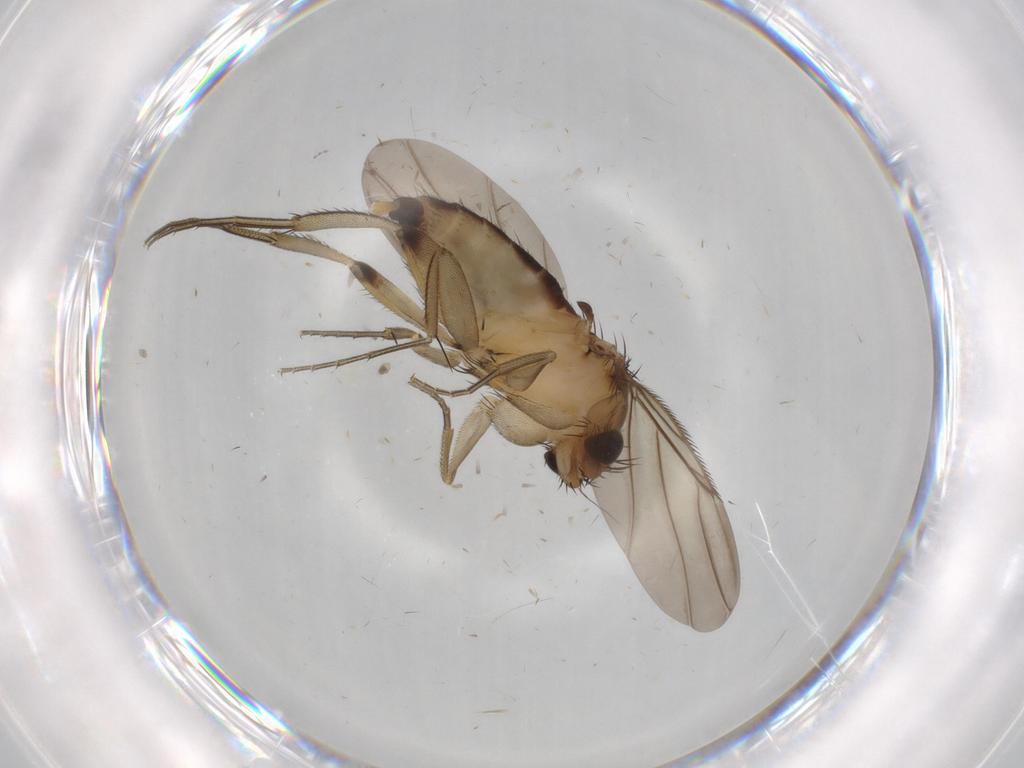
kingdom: Animalia
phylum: Arthropoda
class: Insecta
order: Diptera
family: Phoridae
